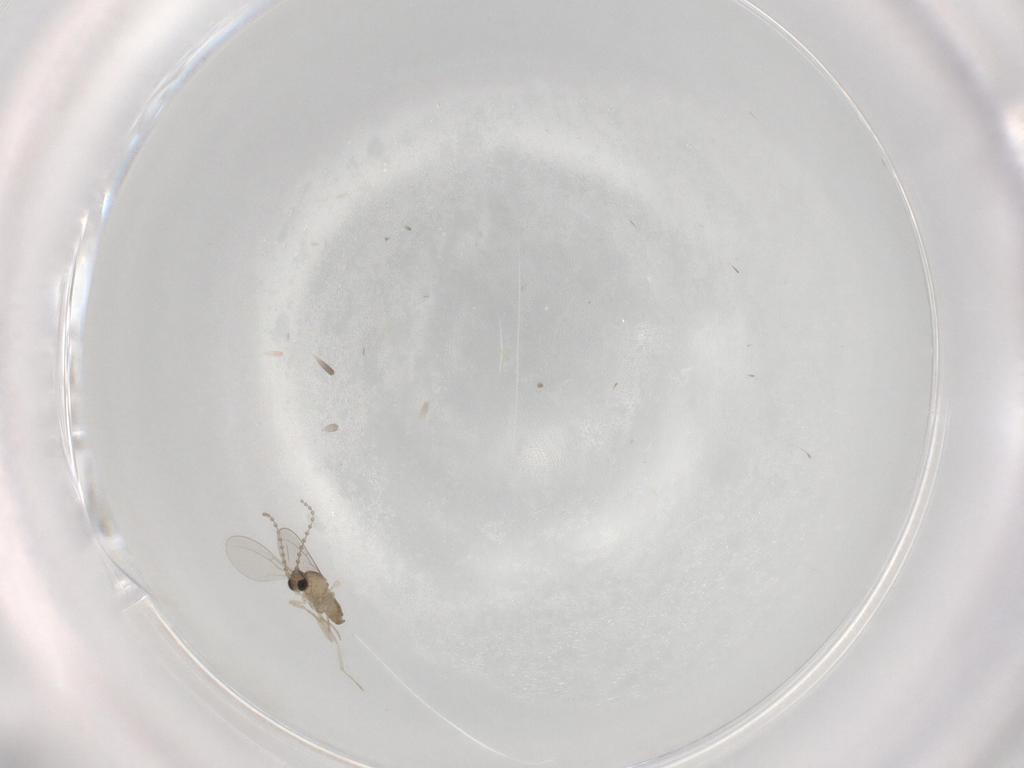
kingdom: Animalia
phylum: Arthropoda
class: Insecta
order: Diptera
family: Cecidomyiidae
